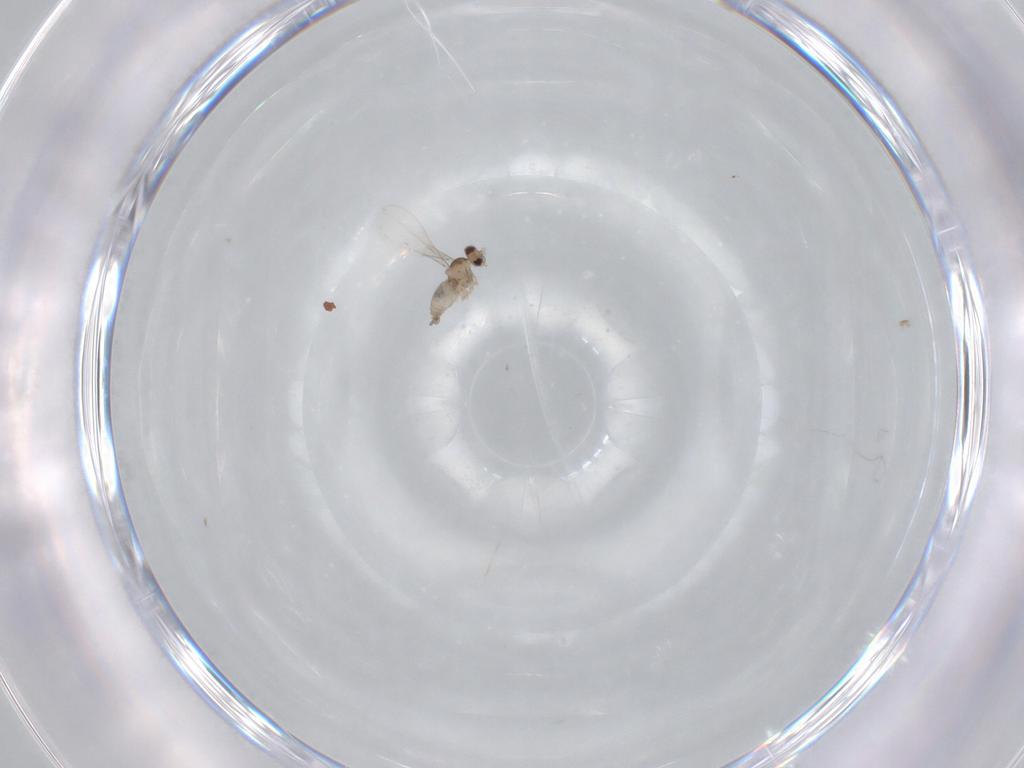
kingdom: Animalia
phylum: Arthropoda
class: Insecta
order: Diptera
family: Cecidomyiidae
